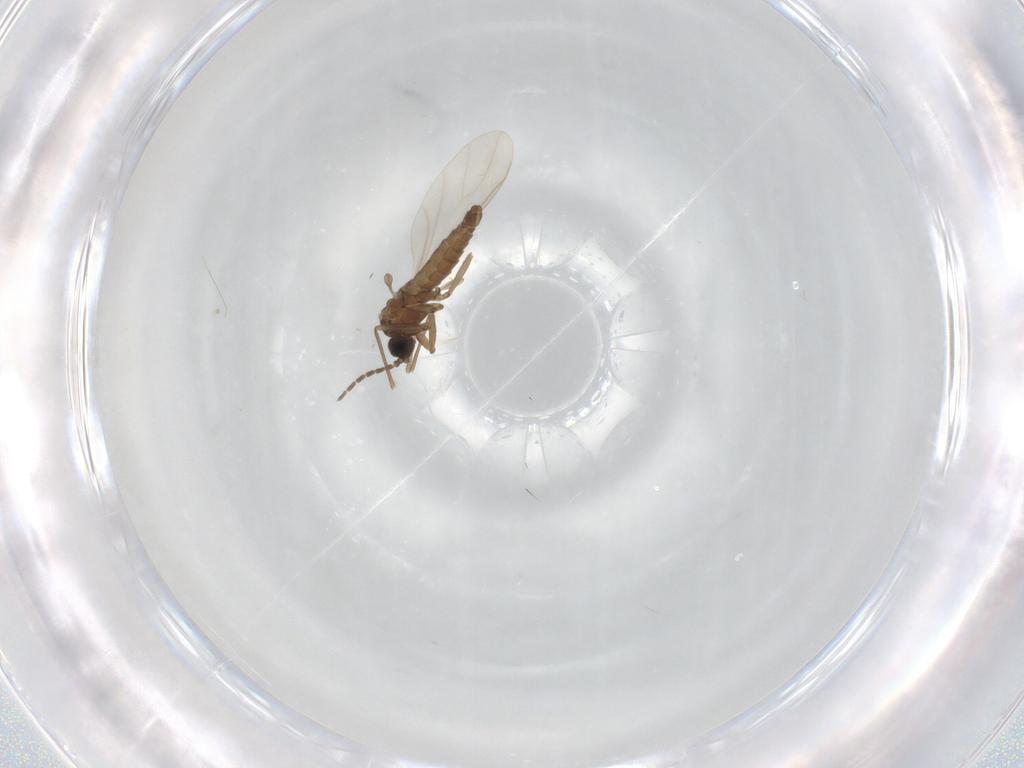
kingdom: Animalia
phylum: Arthropoda
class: Insecta
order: Diptera
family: Sciaridae
